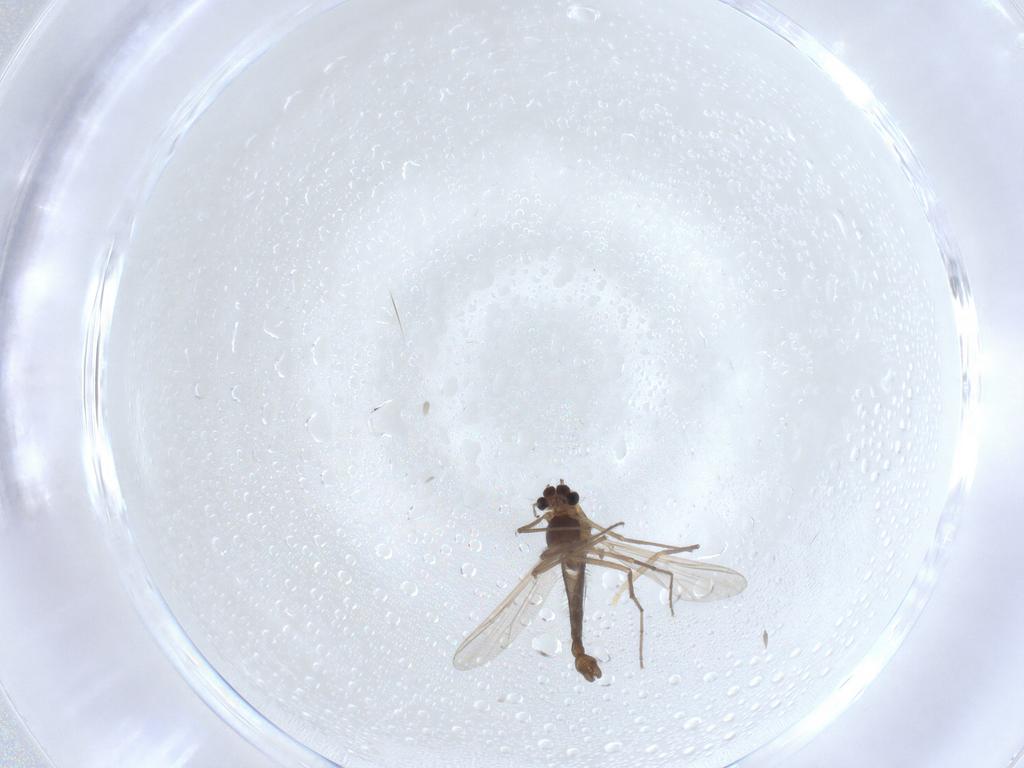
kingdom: Animalia
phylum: Arthropoda
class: Insecta
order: Diptera
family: Chironomidae
